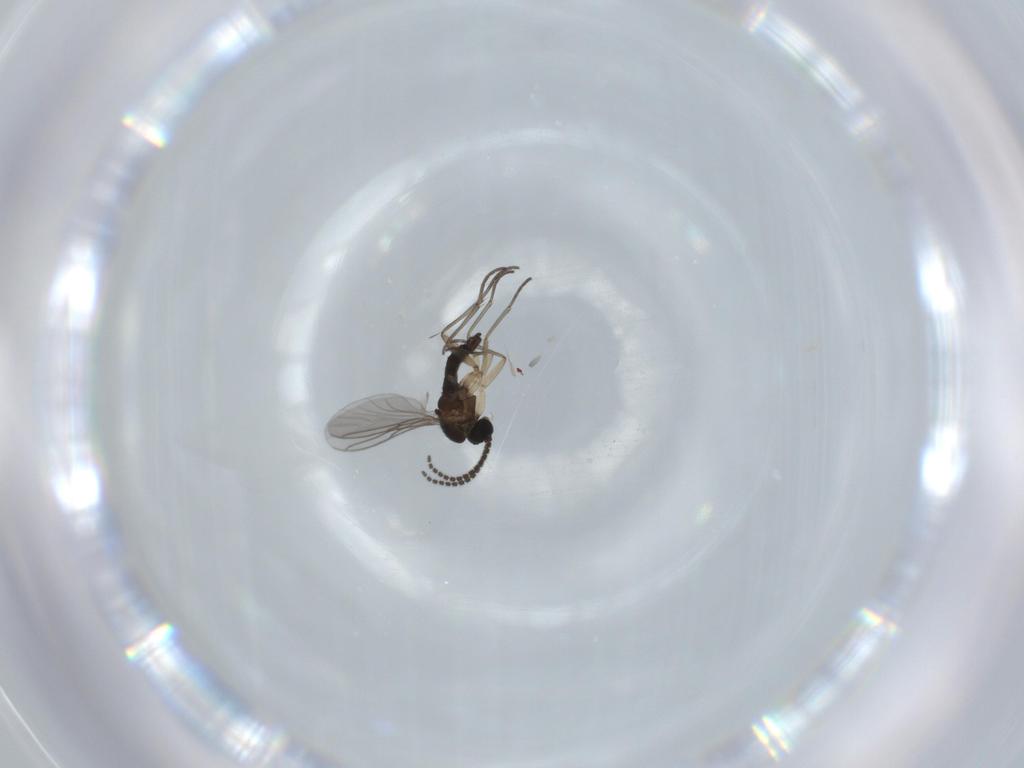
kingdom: Animalia
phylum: Arthropoda
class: Insecta
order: Diptera
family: Sciaridae
